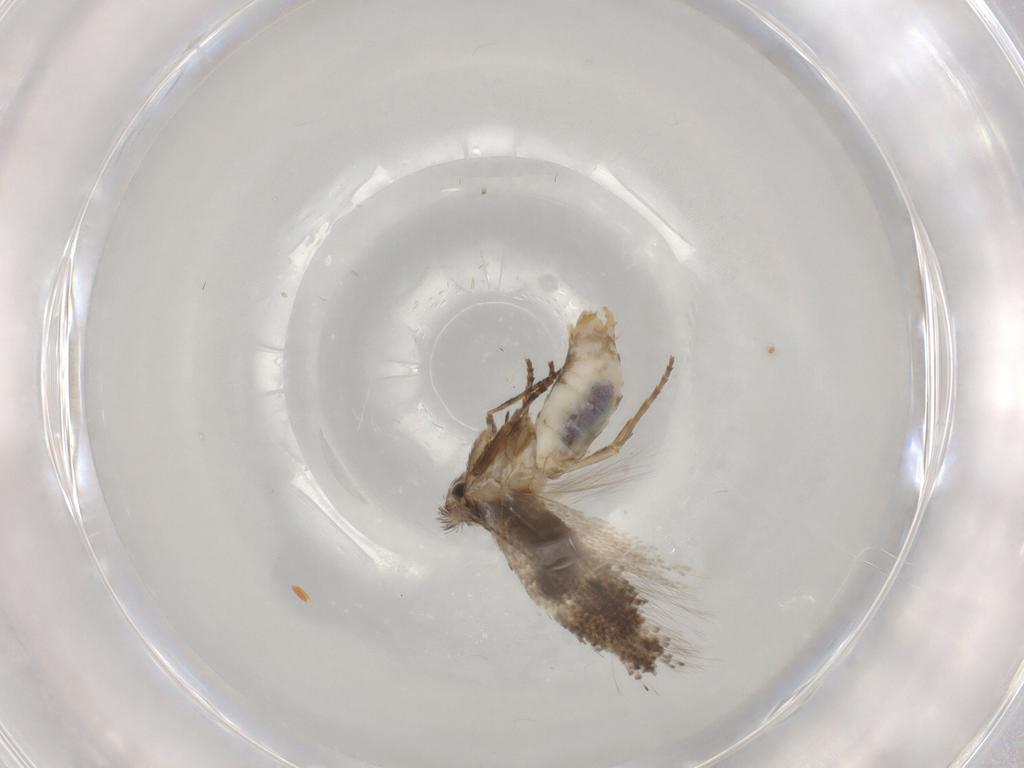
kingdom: Animalia
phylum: Arthropoda
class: Insecta
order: Lepidoptera
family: Bucculatricidae
